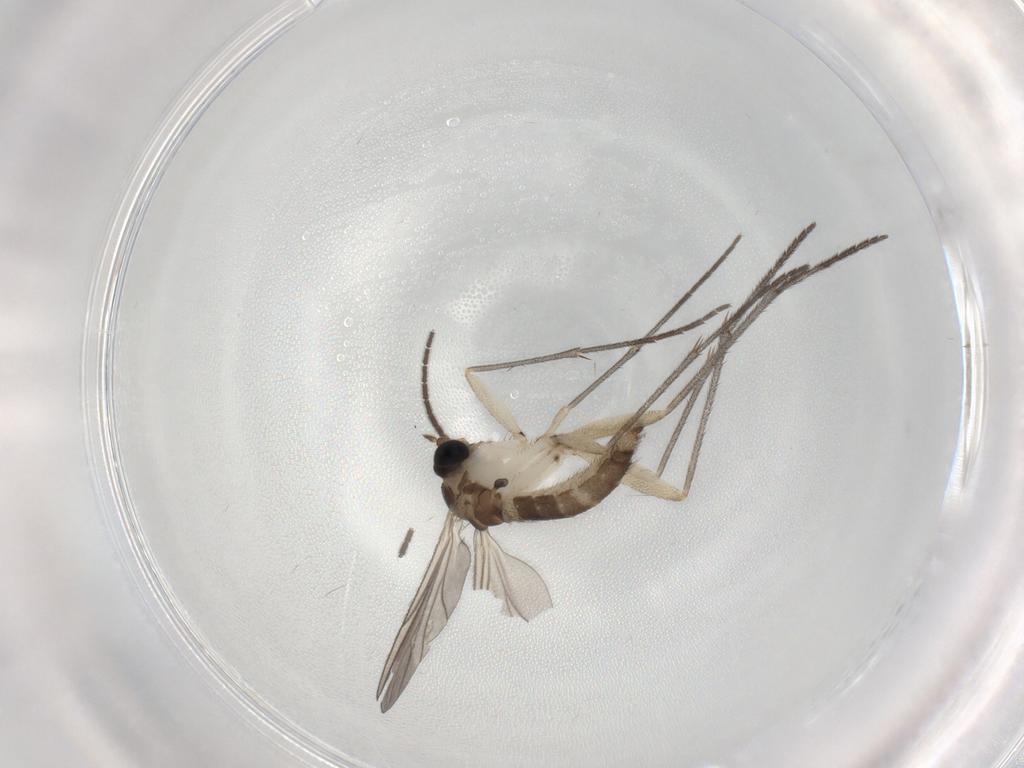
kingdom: Animalia
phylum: Arthropoda
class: Insecta
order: Diptera
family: Sciaridae
